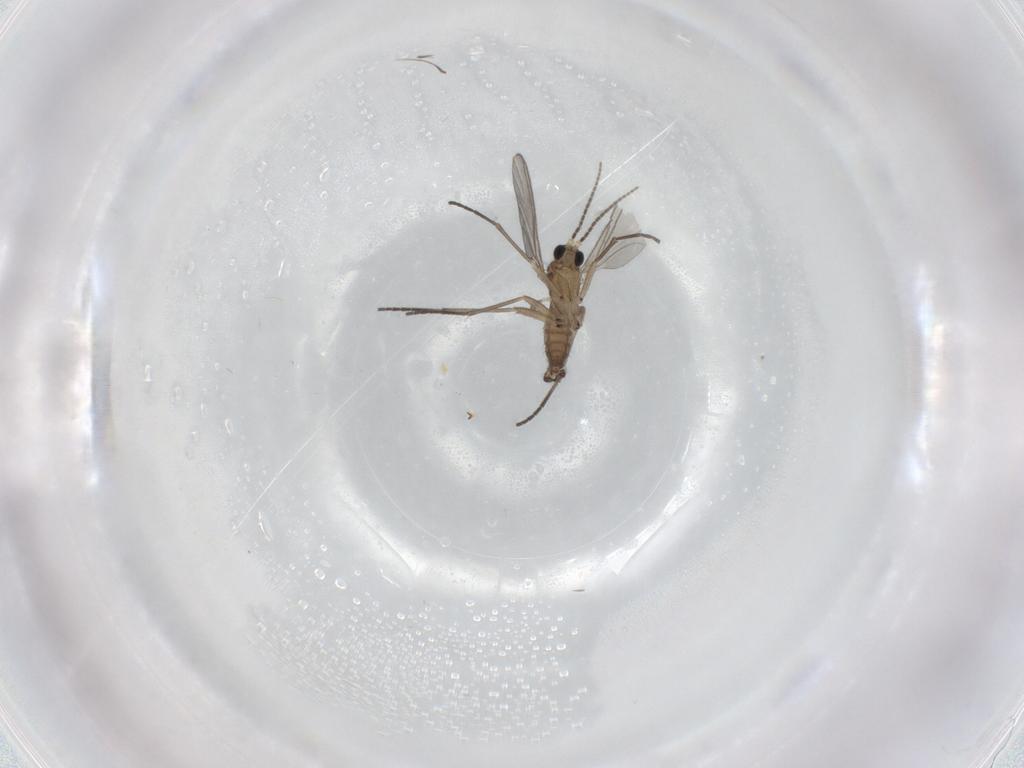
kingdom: Animalia
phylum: Arthropoda
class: Insecta
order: Diptera
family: Sciaridae
